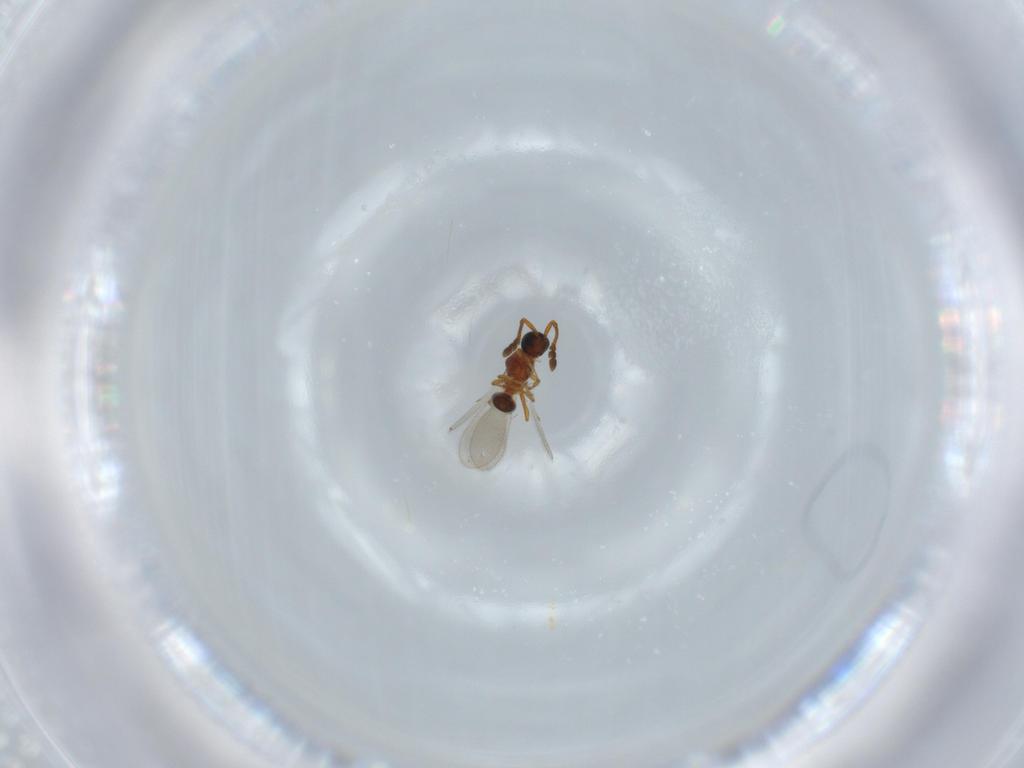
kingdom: Animalia
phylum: Arthropoda
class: Insecta
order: Hymenoptera
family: Diapriidae
